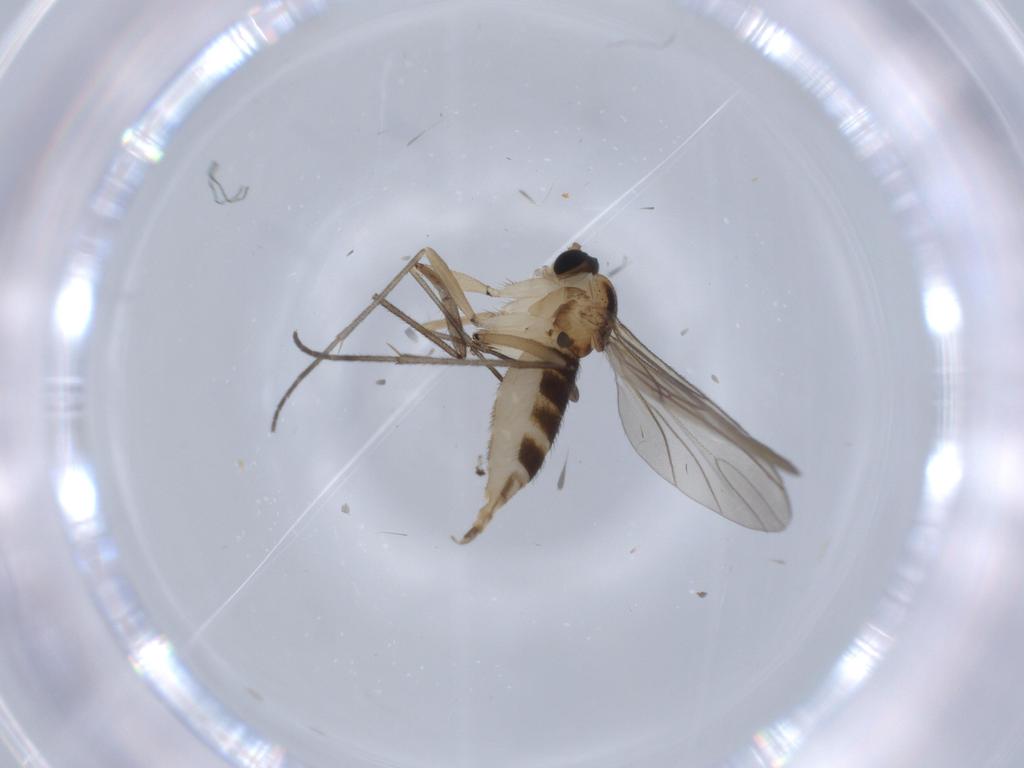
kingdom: Animalia
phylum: Arthropoda
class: Insecta
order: Diptera
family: Sciaridae
